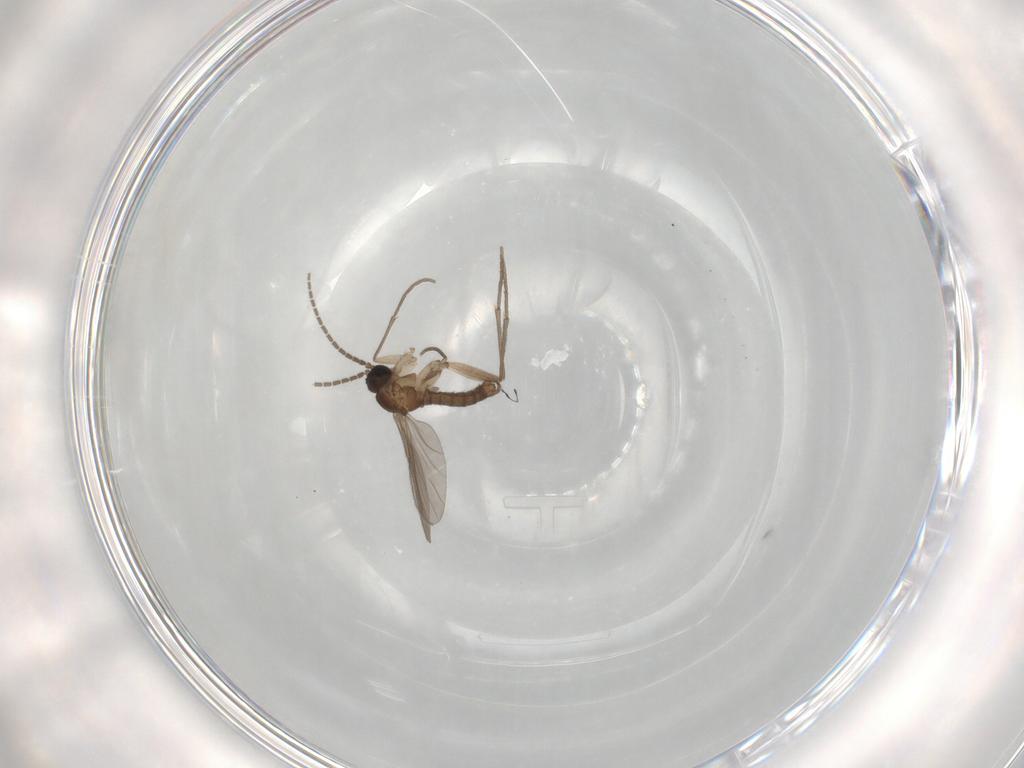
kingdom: Animalia
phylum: Arthropoda
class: Insecta
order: Diptera
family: Sciaridae
